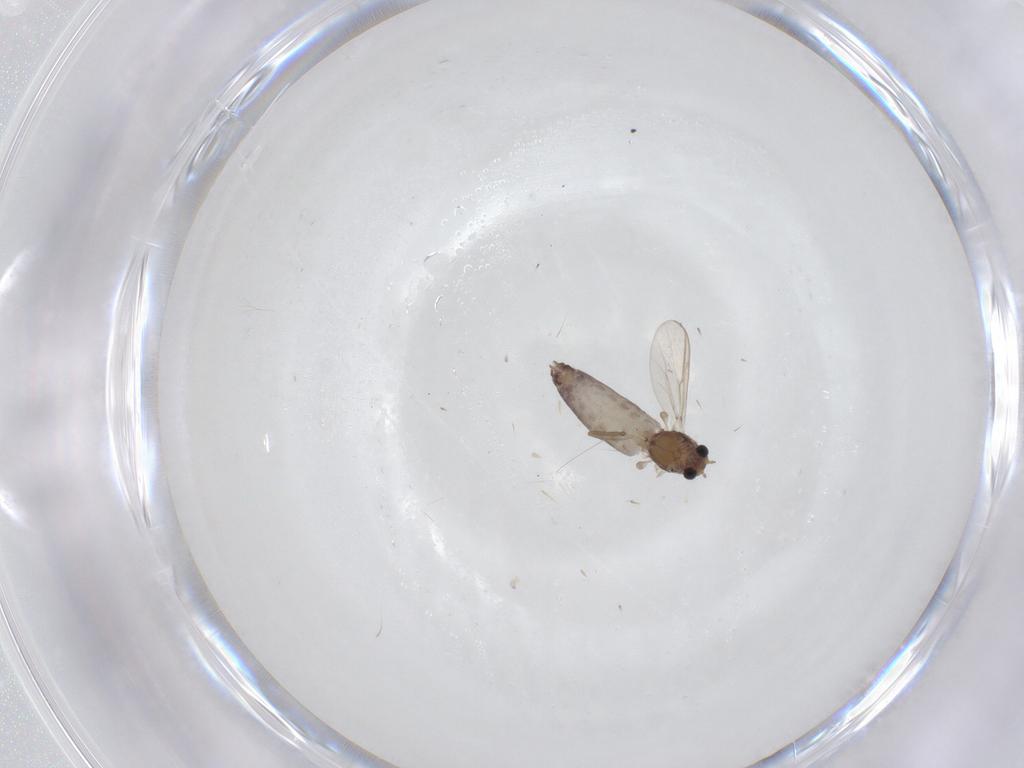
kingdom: Animalia
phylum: Arthropoda
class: Insecta
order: Diptera
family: Chironomidae
